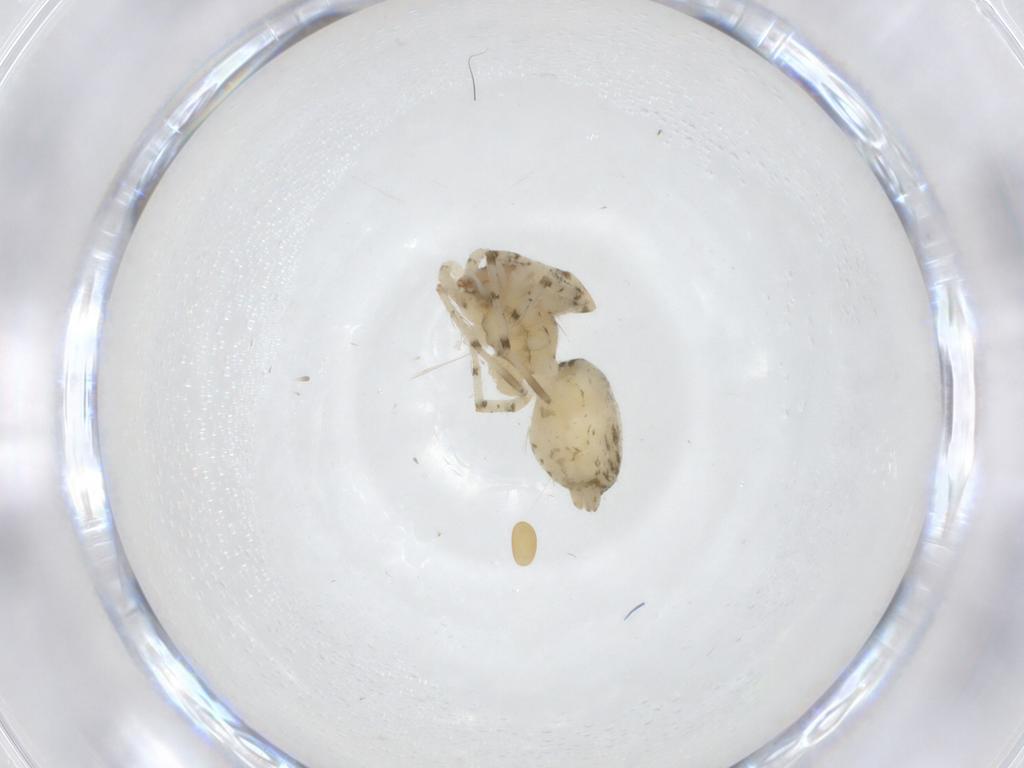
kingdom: Animalia
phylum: Arthropoda
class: Arachnida
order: Araneae
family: Anyphaenidae
